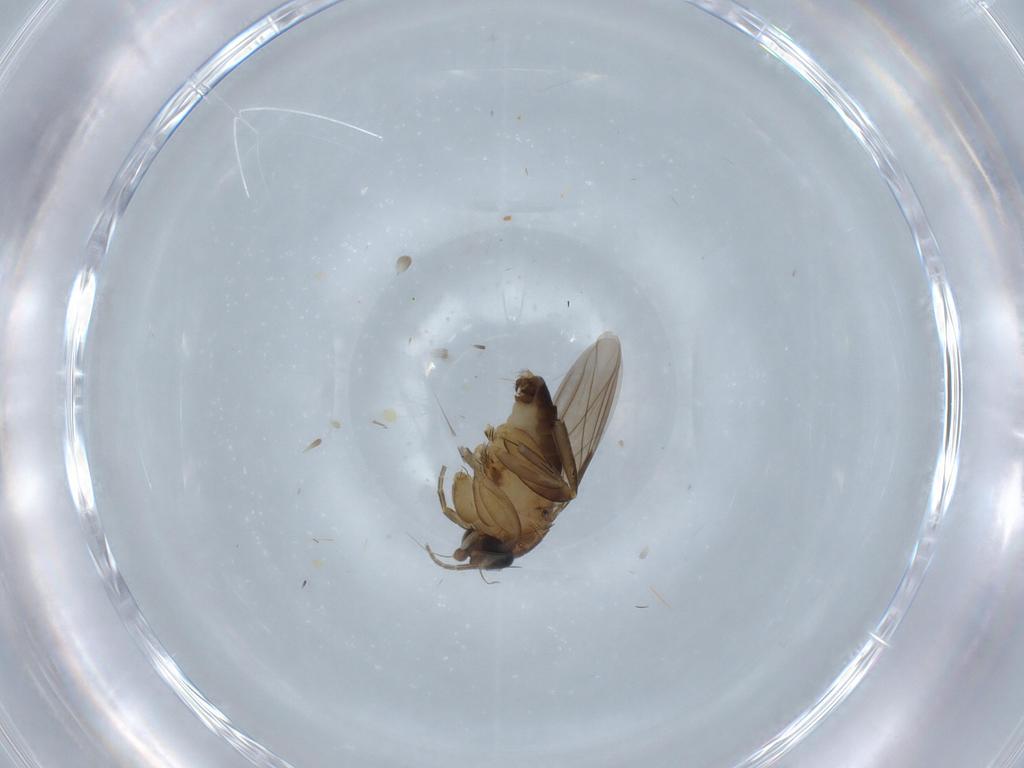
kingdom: Animalia
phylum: Arthropoda
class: Insecta
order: Diptera
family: Phoridae
